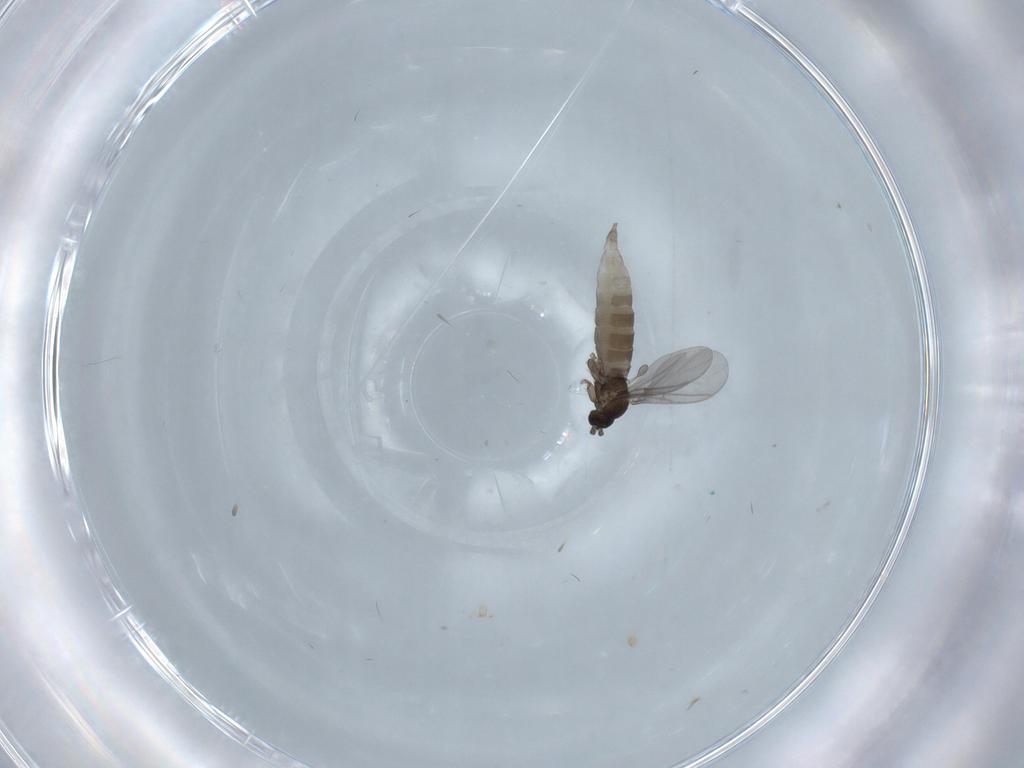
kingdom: Animalia
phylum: Arthropoda
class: Insecta
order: Diptera
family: Sciaridae
